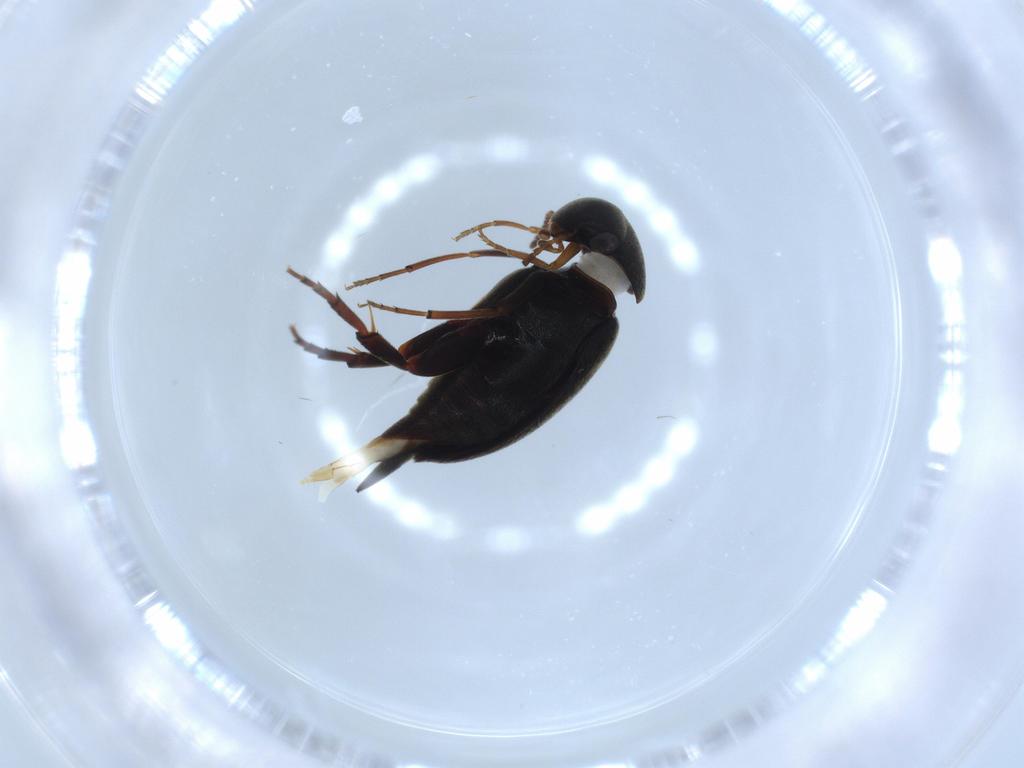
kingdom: Animalia
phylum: Arthropoda
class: Insecta
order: Coleoptera
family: Mordellidae
